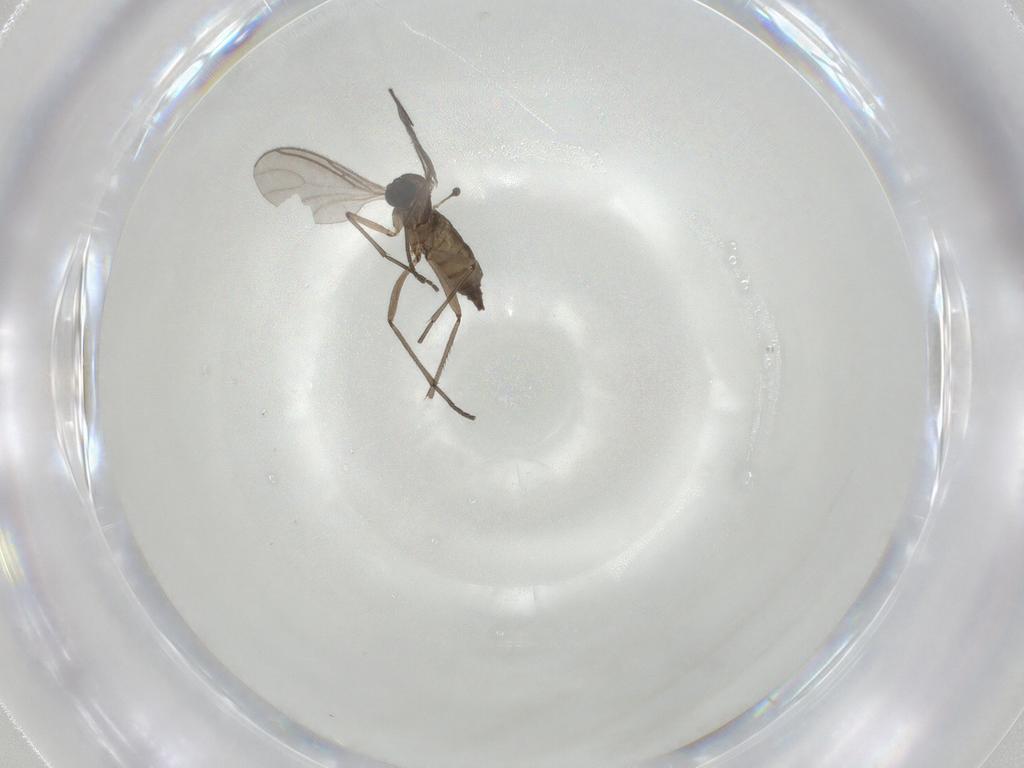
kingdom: Animalia
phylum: Arthropoda
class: Insecta
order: Diptera
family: Sciaridae
